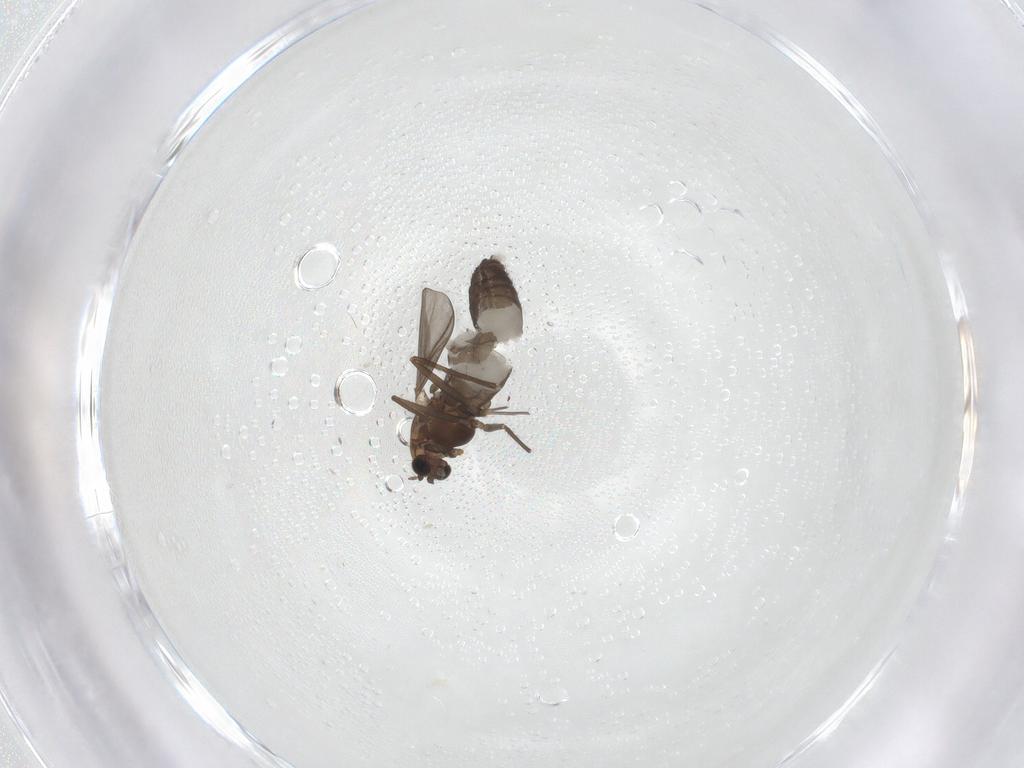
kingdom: Animalia
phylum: Arthropoda
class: Insecta
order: Diptera
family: Chironomidae
